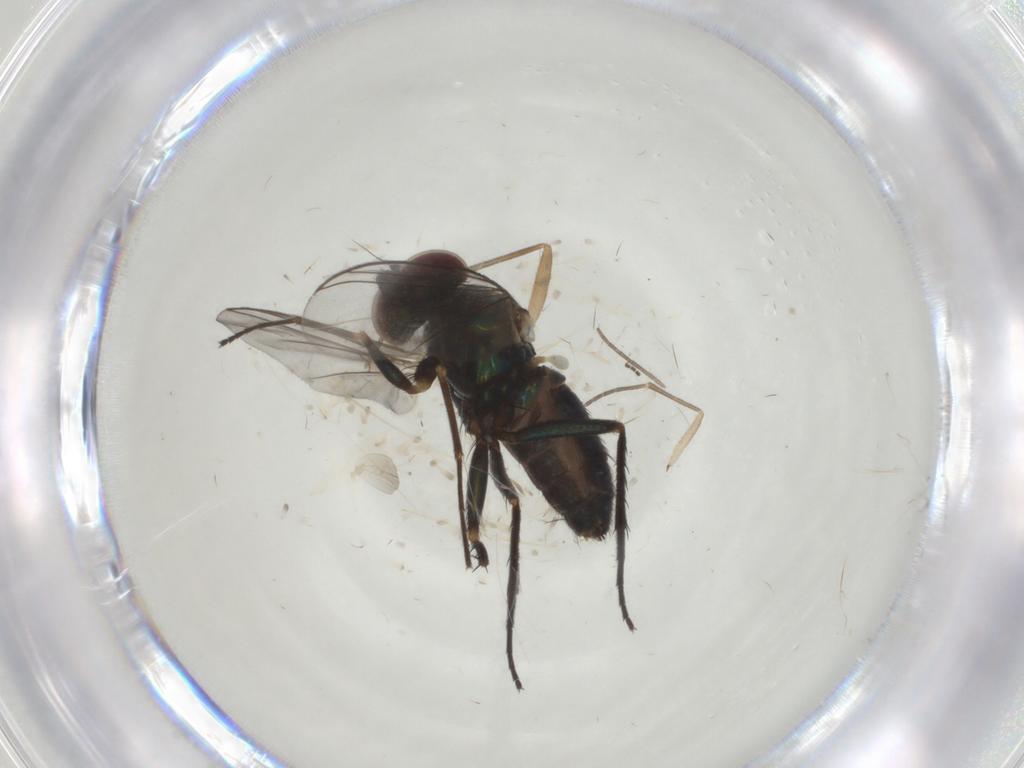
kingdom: Animalia
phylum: Arthropoda
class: Insecta
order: Diptera
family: Dolichopodidae
